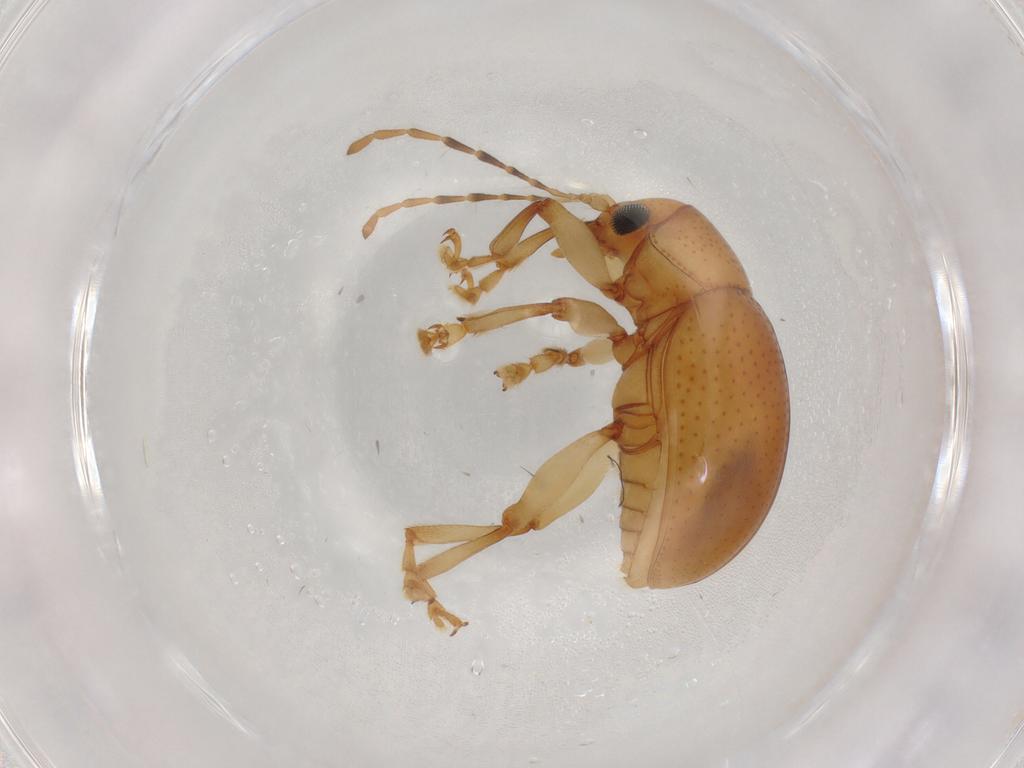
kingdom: Animalia
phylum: Arthropoda
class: Insecta
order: Coleoptera
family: Chrysomelidae
